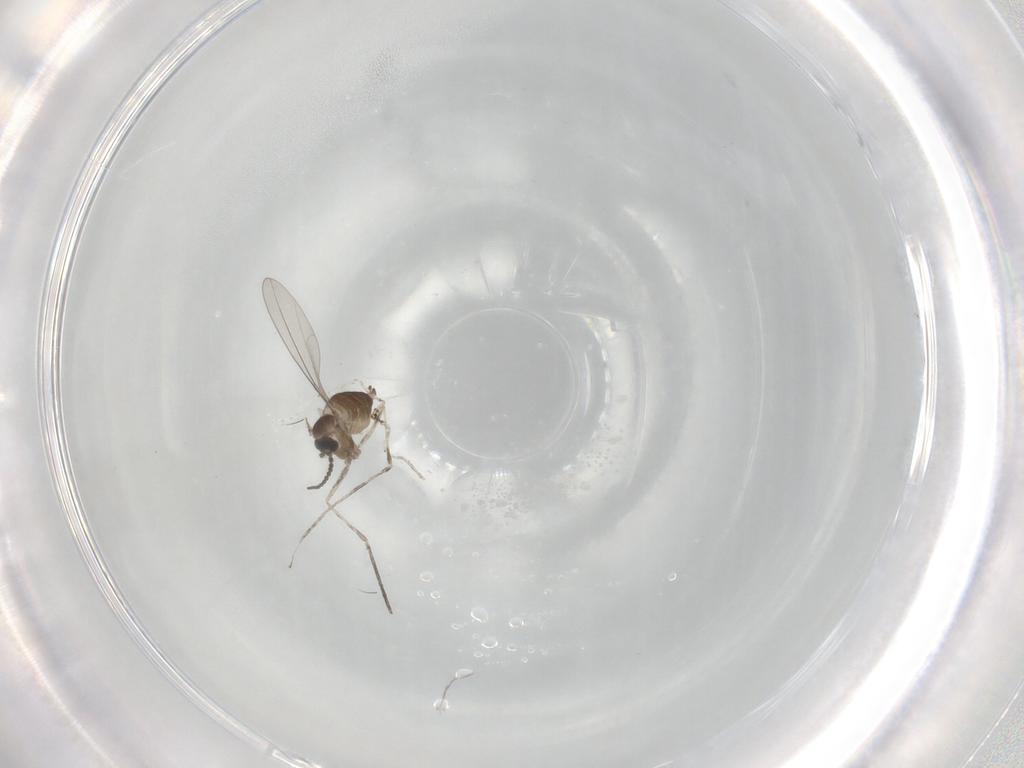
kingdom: Animalia
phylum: Arthropoda
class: Insecta
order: Diptera
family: Cecidomyiidae
